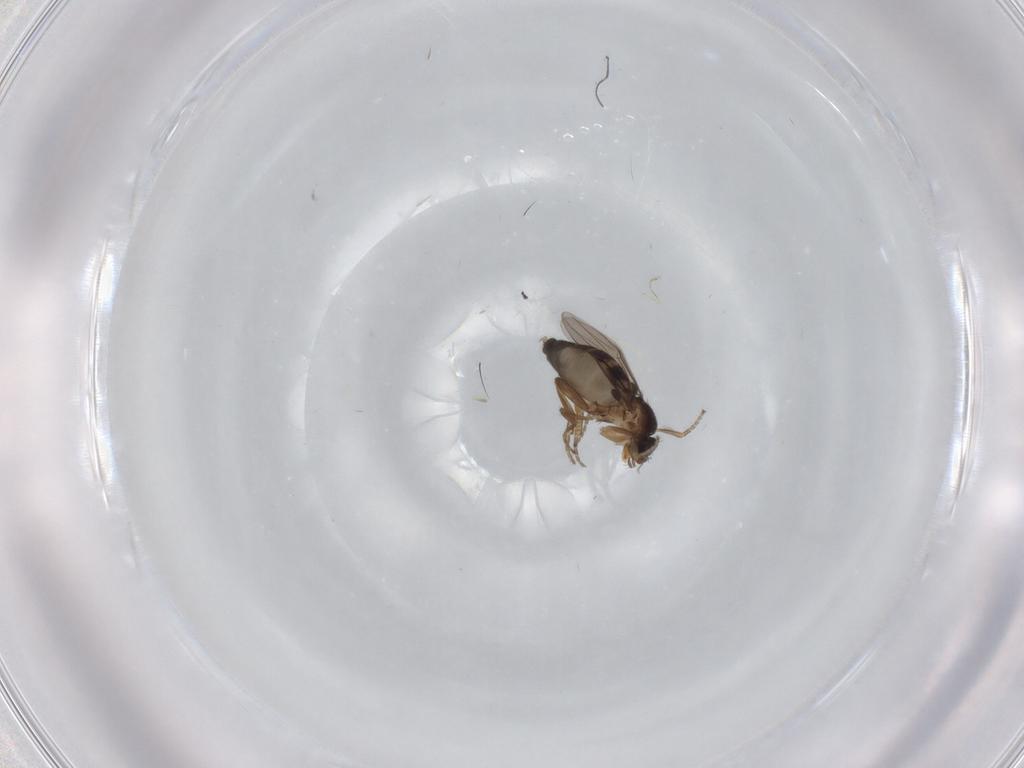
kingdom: Animalia
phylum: Arthropoda
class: Insecta
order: Diptera
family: Phoridae
